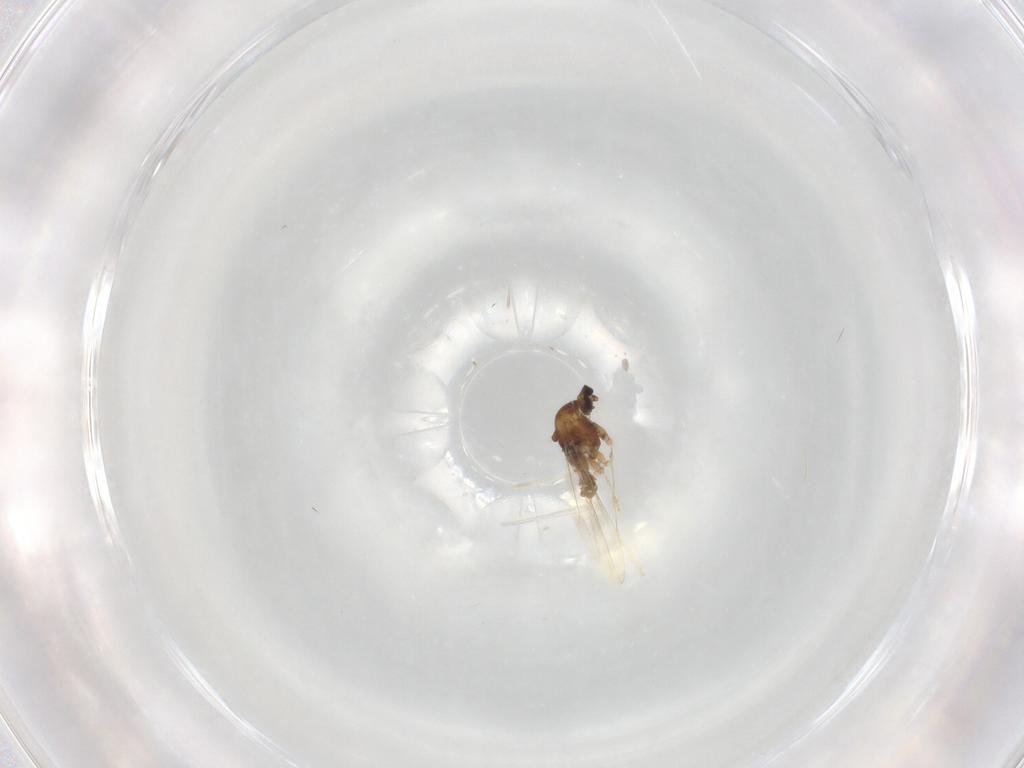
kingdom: Animalia
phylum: Arthropoda
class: Insecta
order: Diptera
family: Cecidomyiidae
